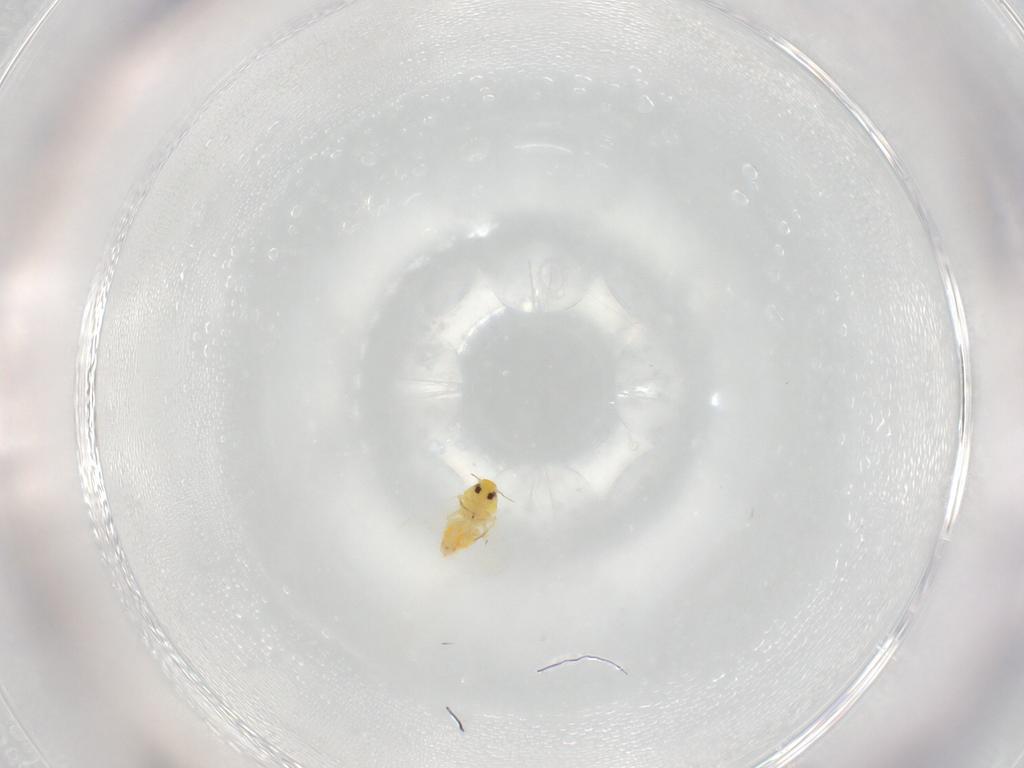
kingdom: Animalia
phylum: Arthropoda
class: Insecta
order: Hemiptera
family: Aleyrodidae
